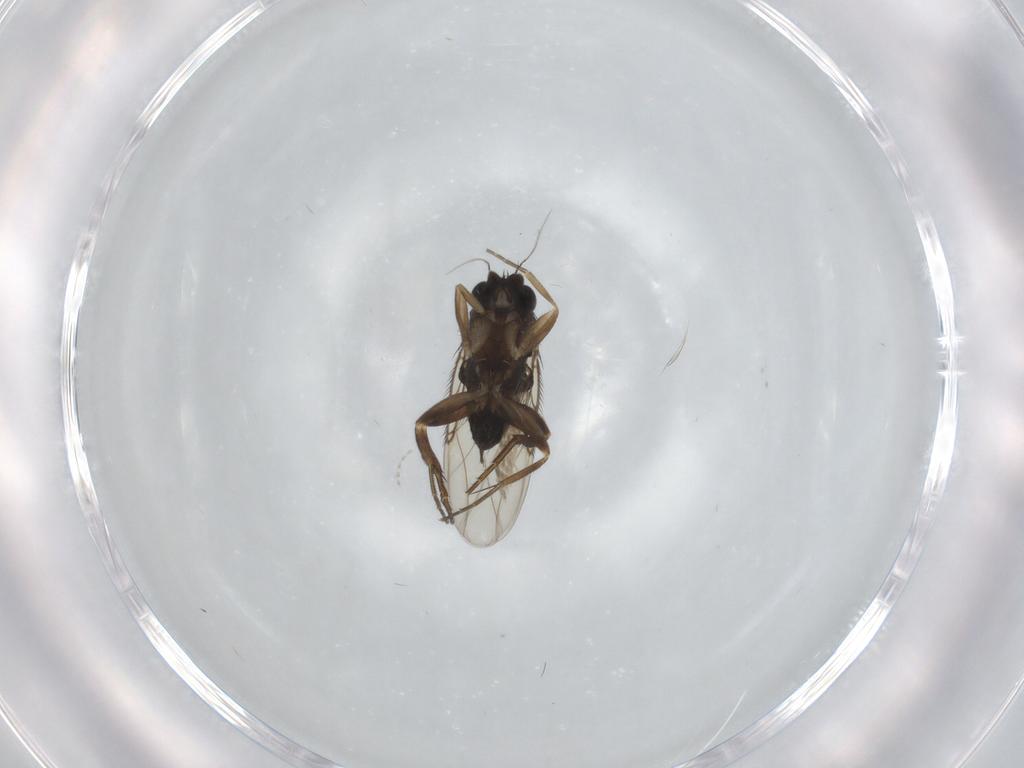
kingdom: Animalia
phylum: Arthropoda
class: Insecta
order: Diptera
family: Phoridae
